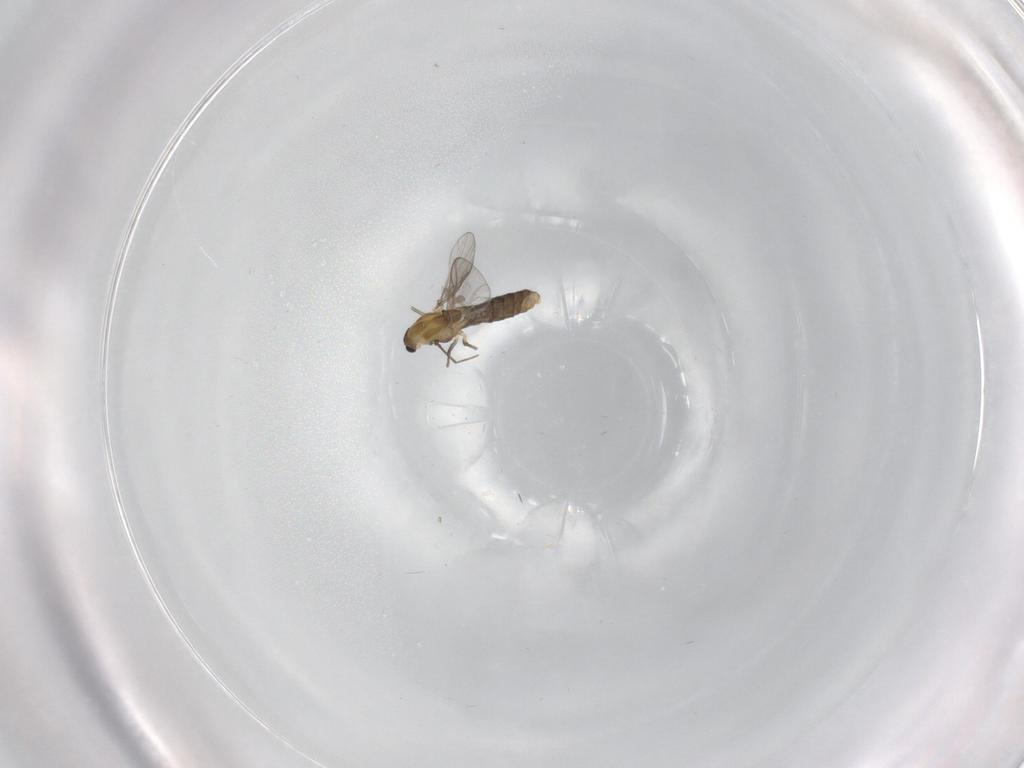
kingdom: Animalia
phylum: Arthropoda
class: Insecta
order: Diptera
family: Chironomidae
